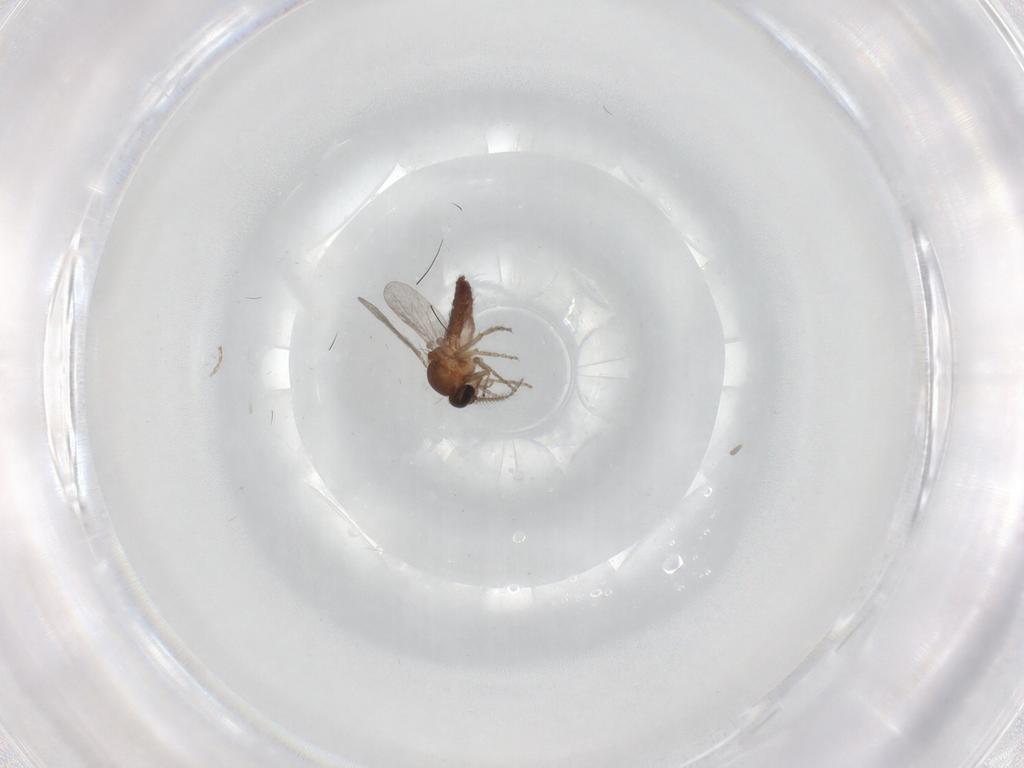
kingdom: Animalia
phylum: Arthropoda
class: Insecta
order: Diptera
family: Ceratopogonidae
